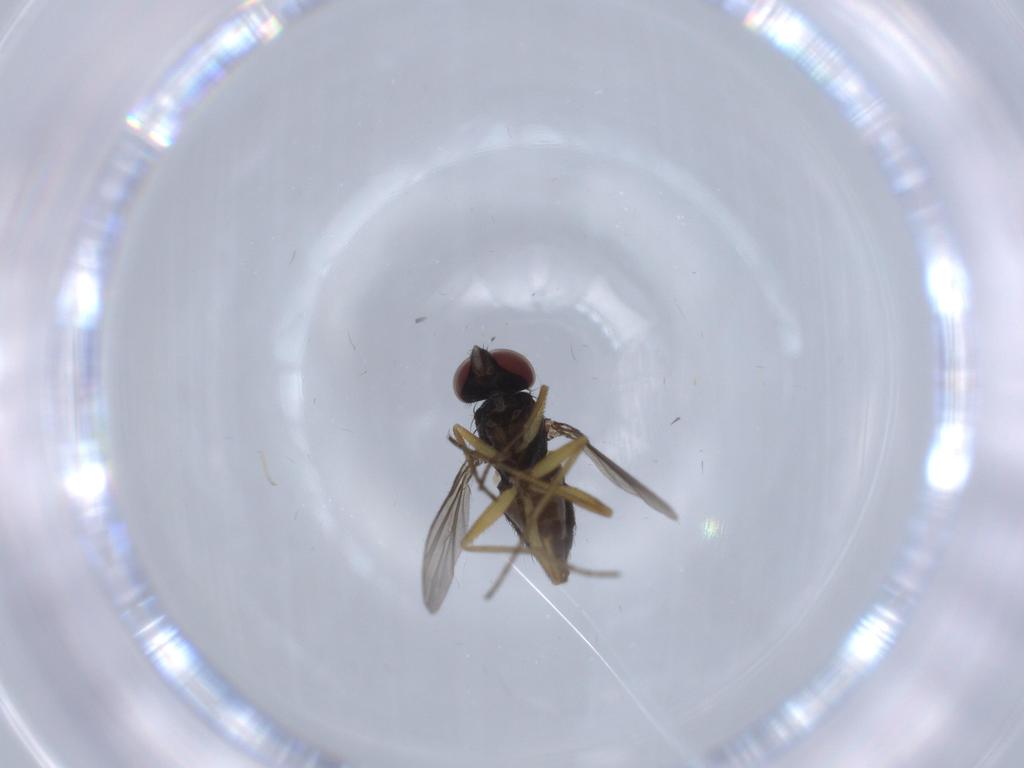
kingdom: Animalia
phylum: Arthropoda
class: Insecta
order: Diptera
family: Dolichopodidae
